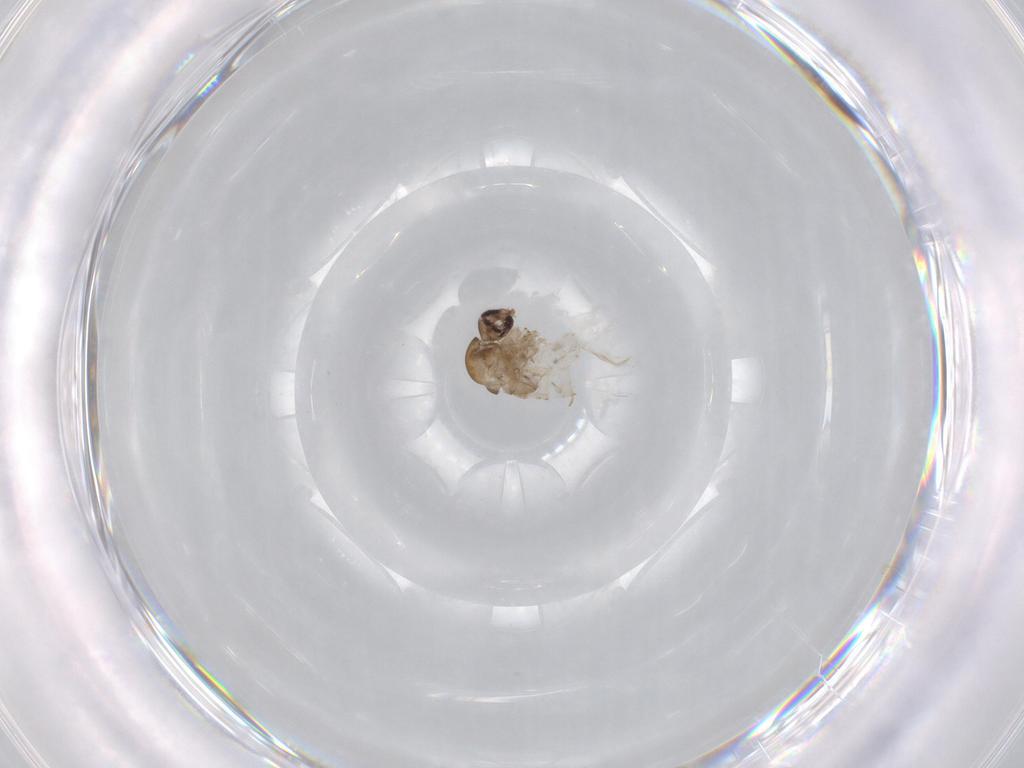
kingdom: Animalia
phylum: Arthropoda
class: Insecta
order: Diptera
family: Psychodidae
